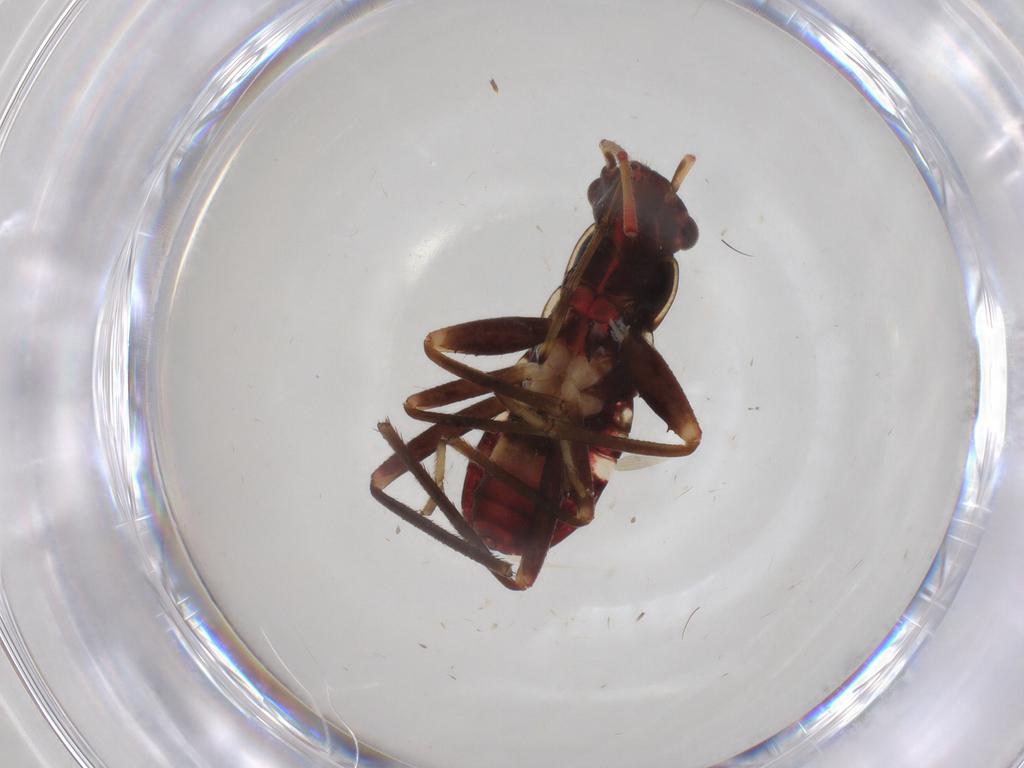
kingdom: Animalia
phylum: Arthropoda
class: Insecta
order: Hemiptera
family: Rhyparochromidae
